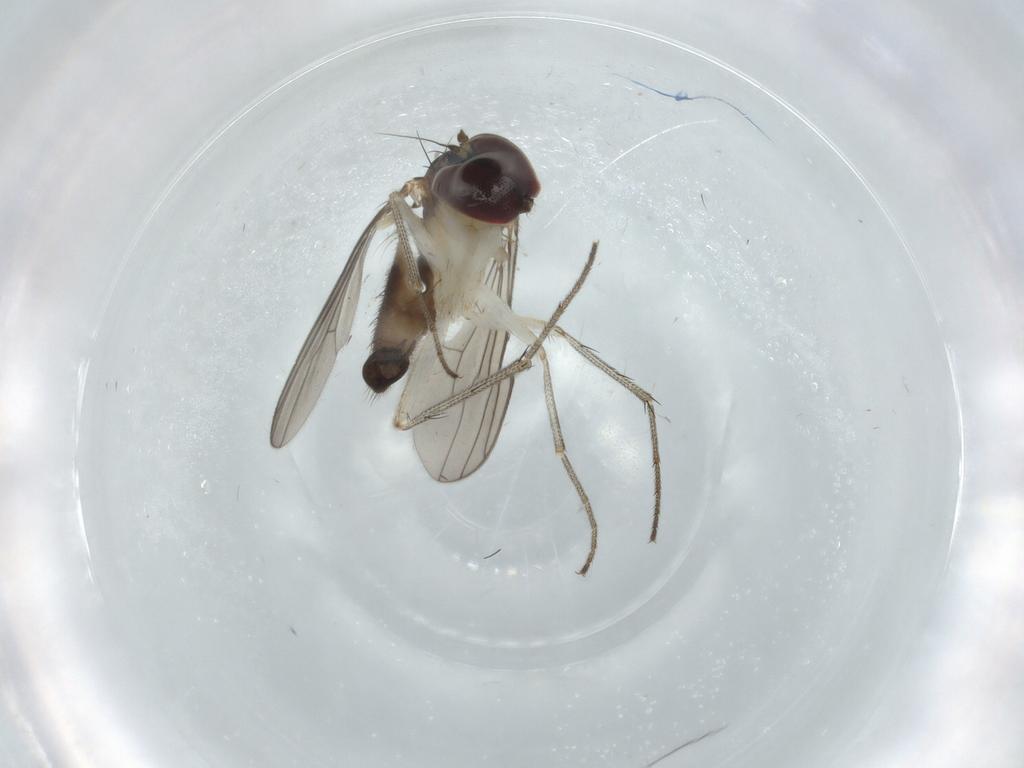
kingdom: Animalia
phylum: Arthropoda
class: Insecta
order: Diptera
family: Dolichopodidae
